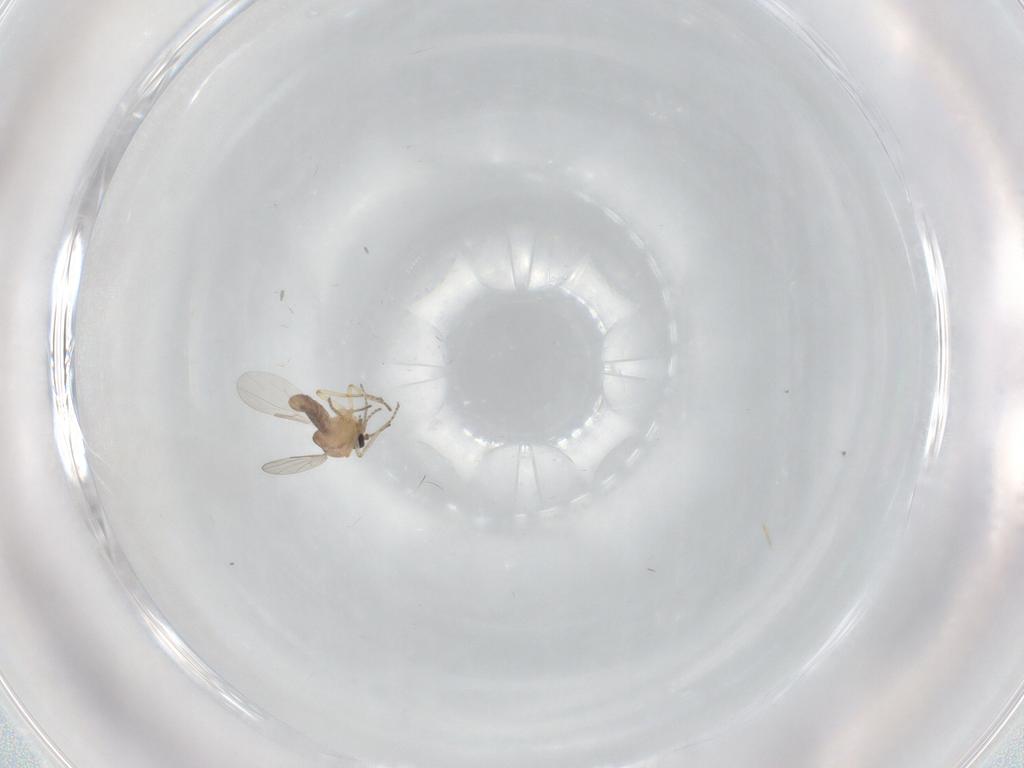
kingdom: Animalia
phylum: Arthropoda
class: Insecta
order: Diptera
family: Ceratopogonidae
